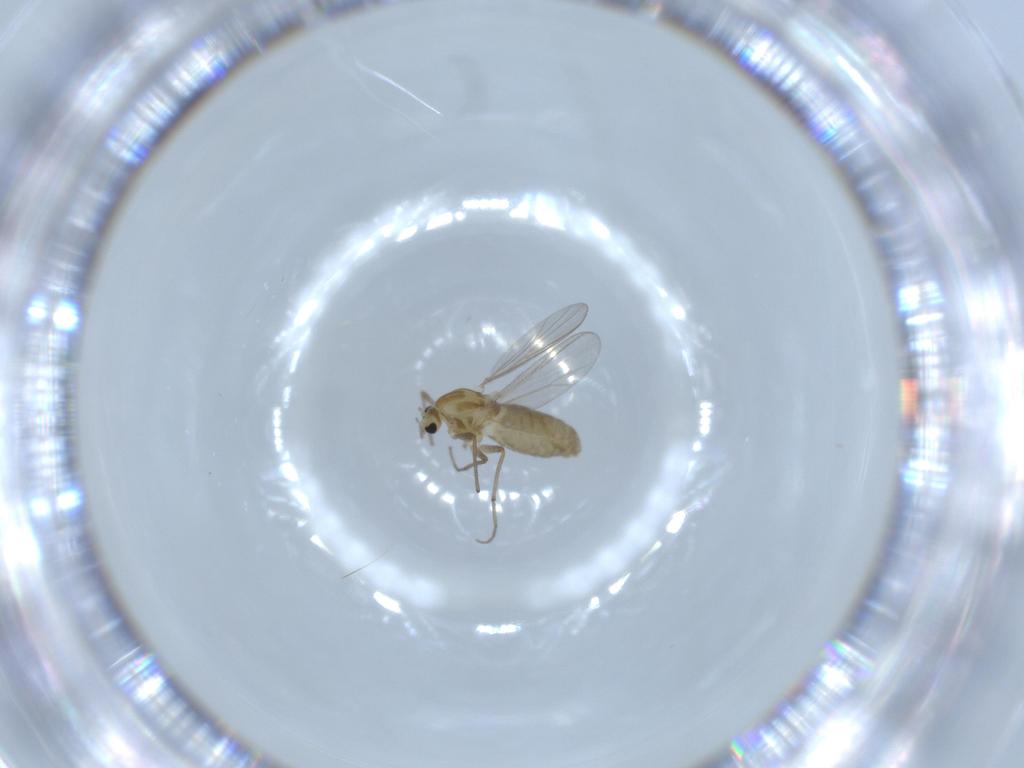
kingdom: Animalia
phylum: Arthropoda
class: Insecta
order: Diptera
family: Chironomidae
